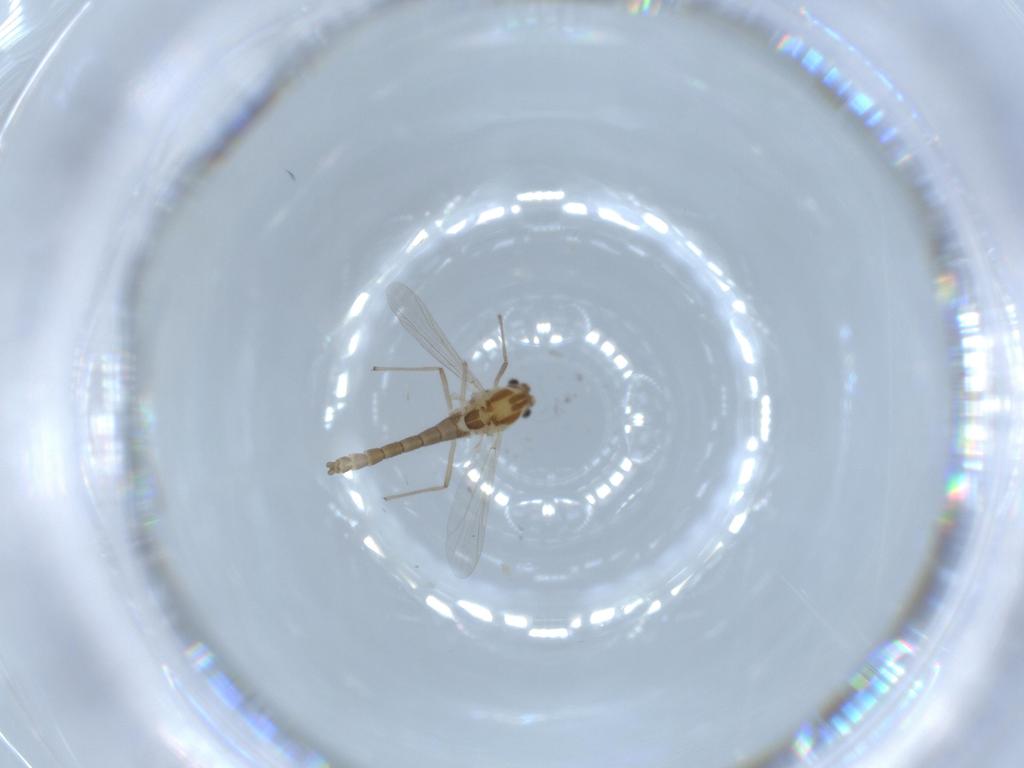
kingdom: Animalia
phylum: Arthropoda
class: Insecta
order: Diptera
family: Chironomidae
